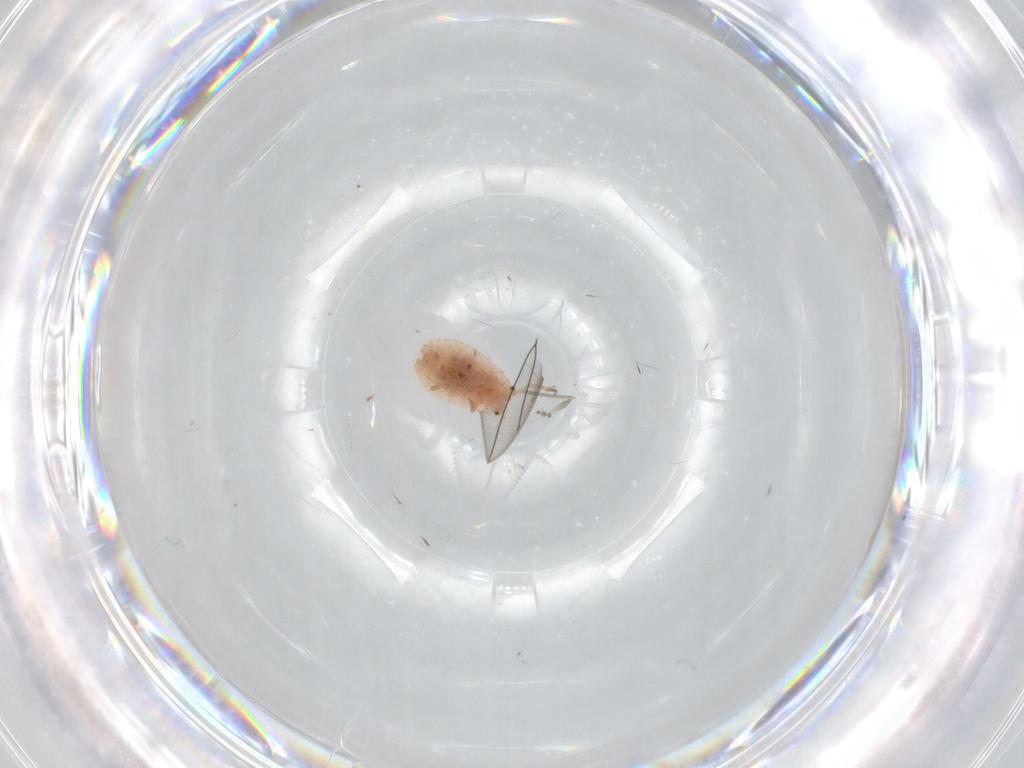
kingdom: Animalia
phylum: Arthropoda
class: Insecta
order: Hemiptera
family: Coccoidea_incertae_sedis
